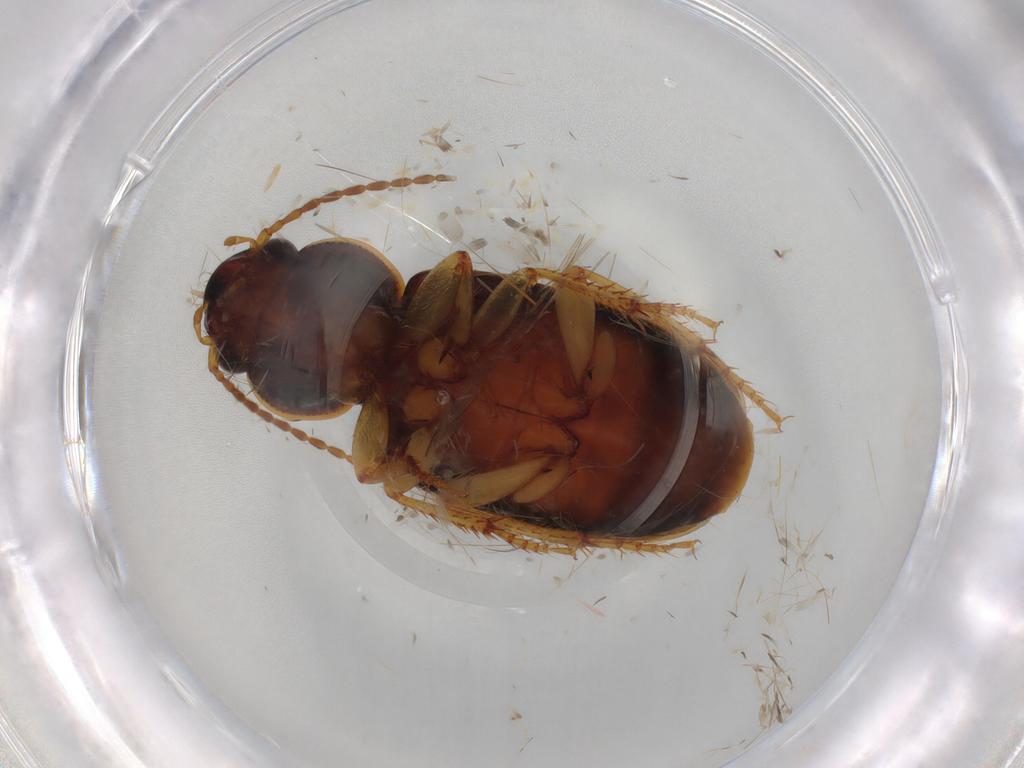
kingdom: Animalia
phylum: Arthropoda
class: Insecta
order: Coleoptera
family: Carabidae
